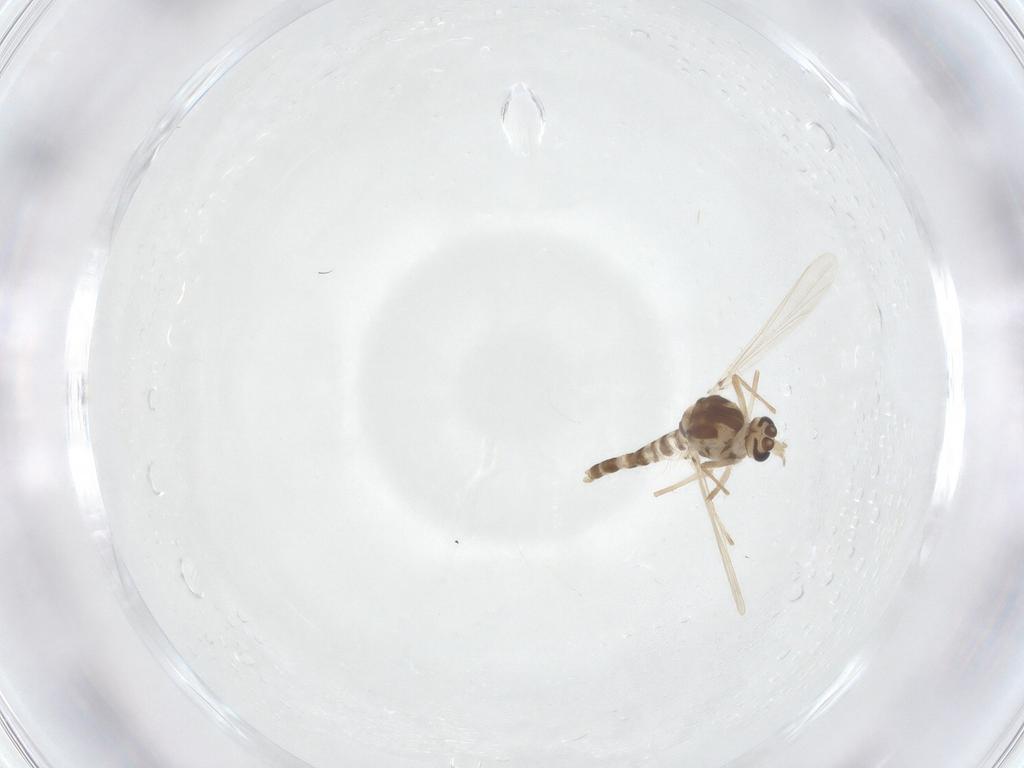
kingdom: Animalia
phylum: Arthropoda
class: Insecta
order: Diptera
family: Chironomidae
